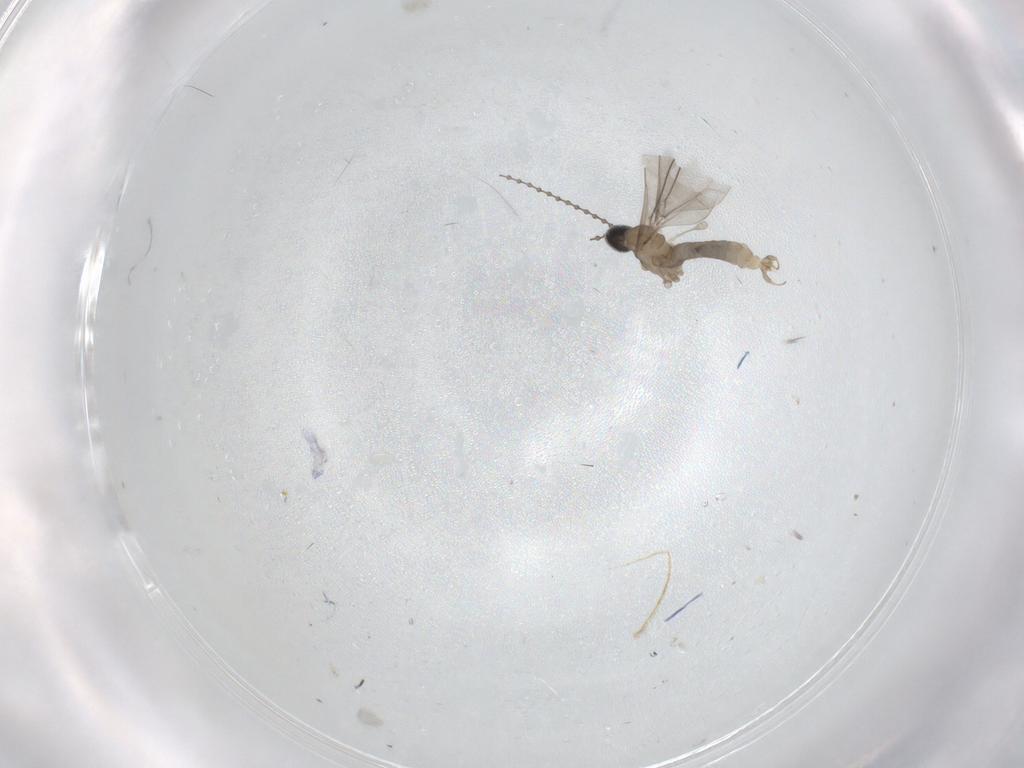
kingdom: Animalia
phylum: Arthropoda
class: Insecta
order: Diptera
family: Cecidomyiidae
